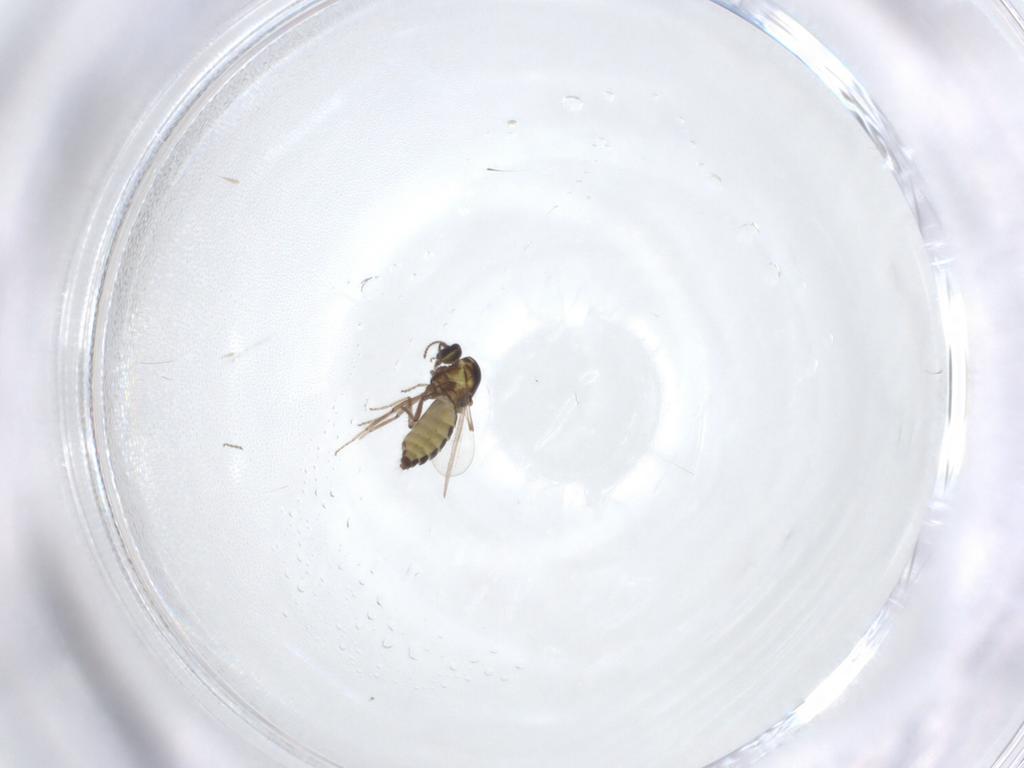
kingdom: Animalia
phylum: Arthropoda
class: Insecta
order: Diptera
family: Ceratopogonidae
